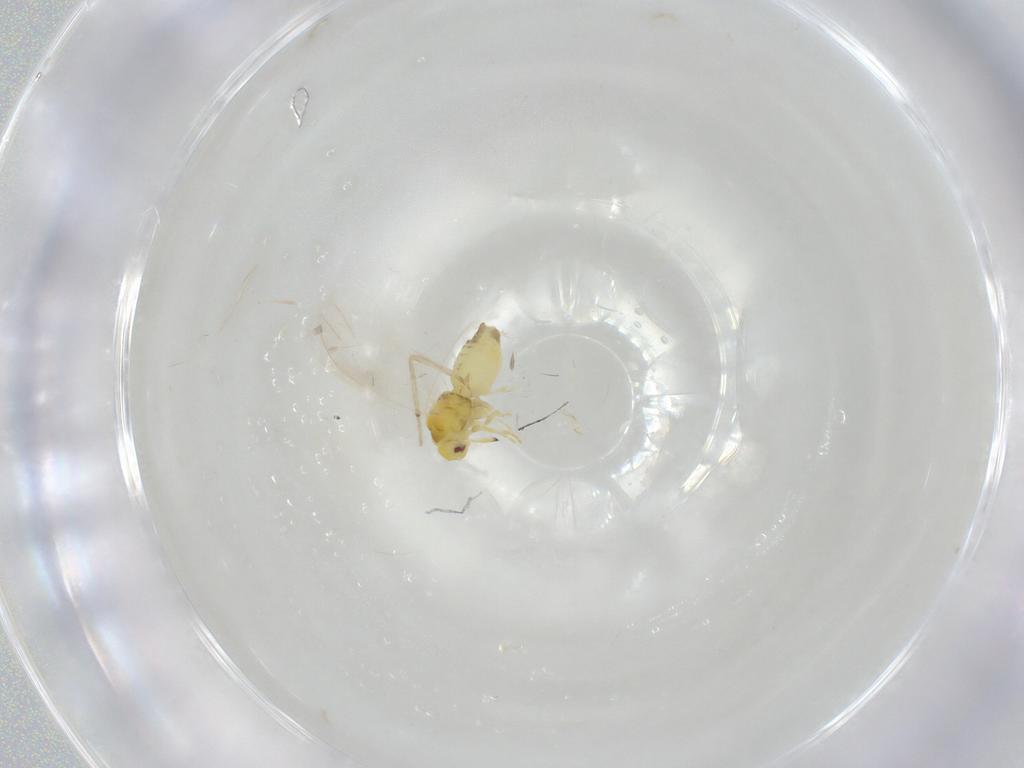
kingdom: Animalia
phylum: Arthropoda
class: Insecta
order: Hemiptera
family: Aleyrodidae
